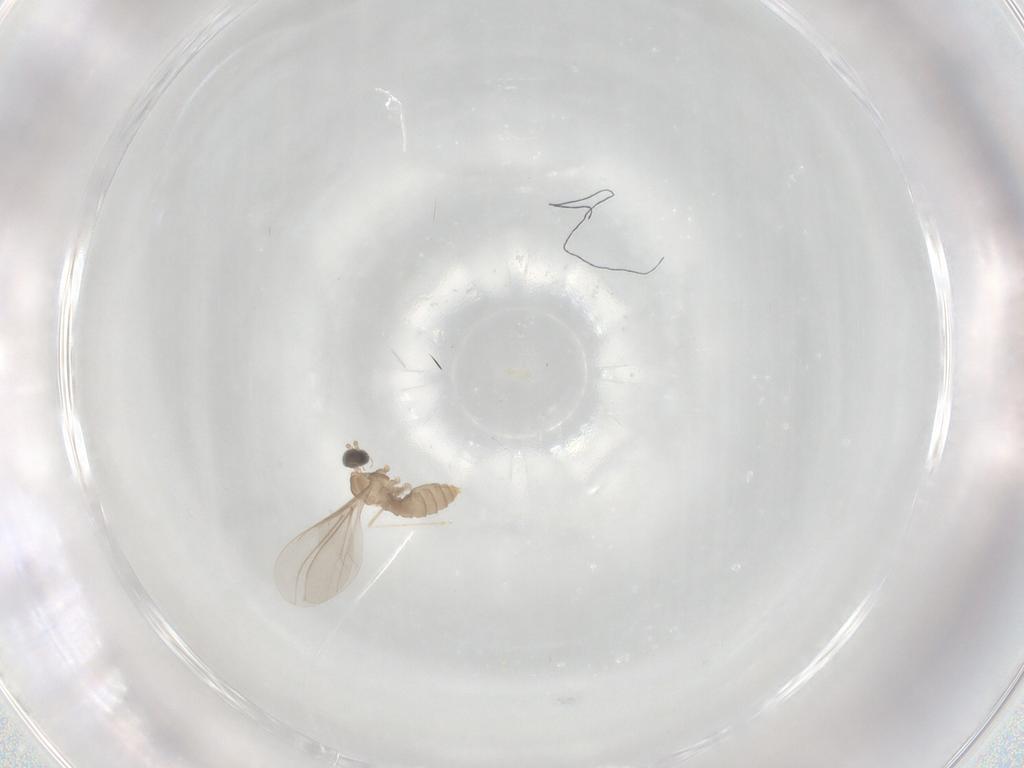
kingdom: Animalia
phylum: Arthropoda
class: Insecta
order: Diptera
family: Cecidomyiidae
